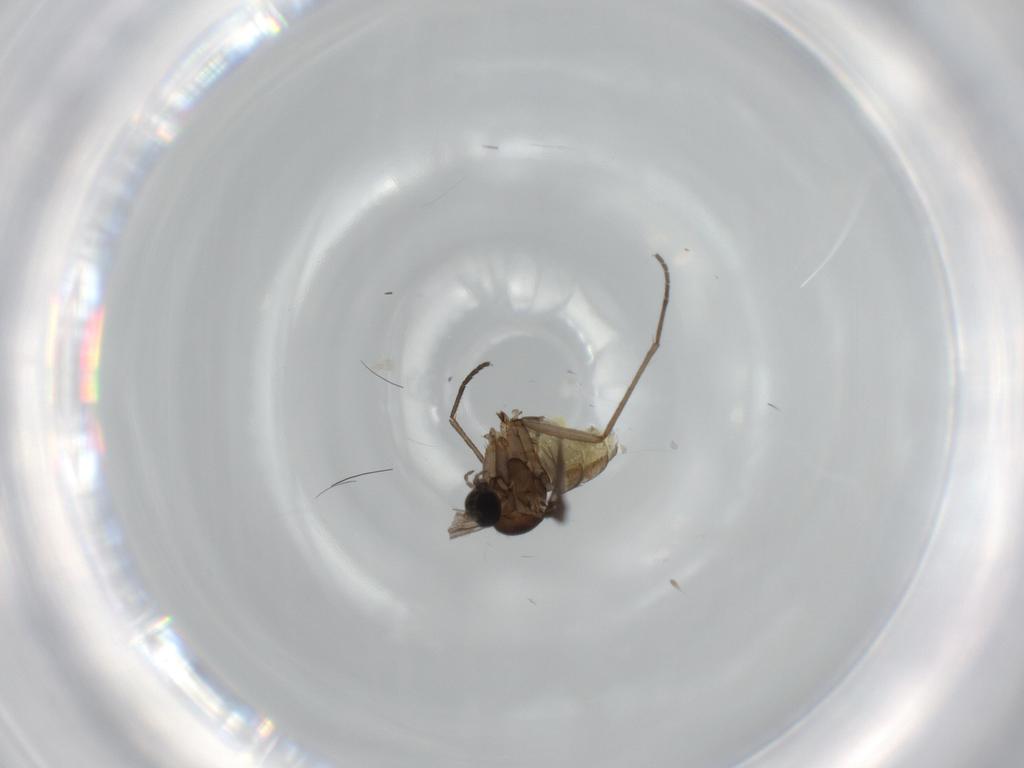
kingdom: Animalia
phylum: Arthropoda
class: Insecta
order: Diptera
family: Sciaridae
